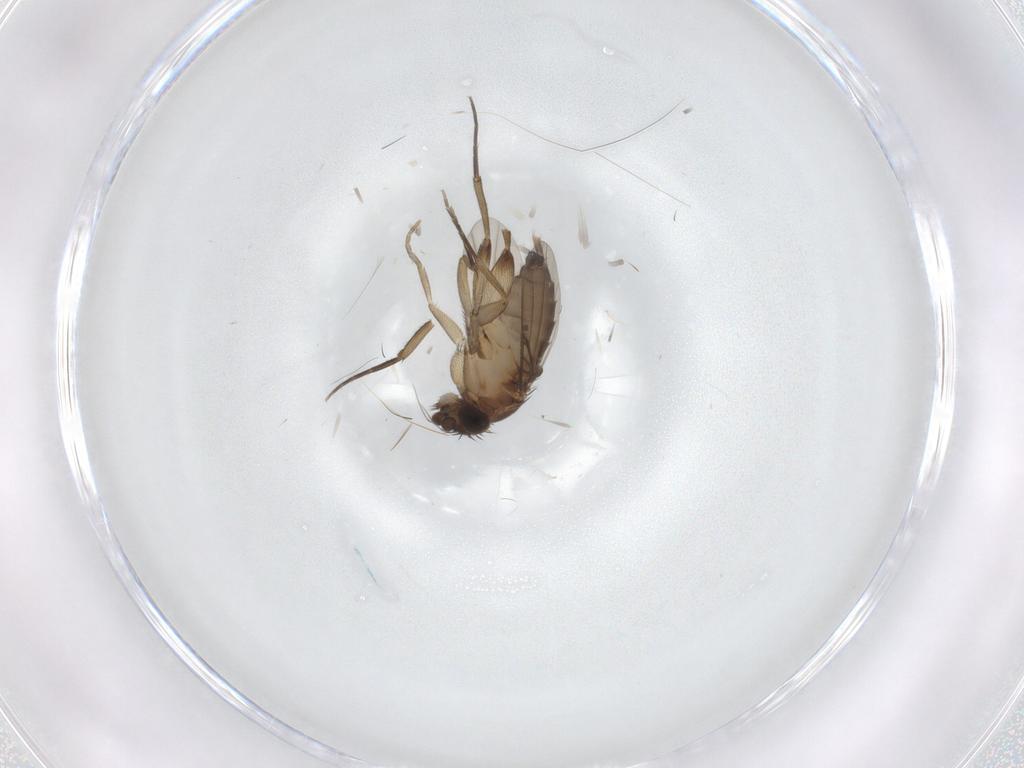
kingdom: Animalia
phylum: Arthropoda
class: Insecta
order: Diptera
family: Phoridae
